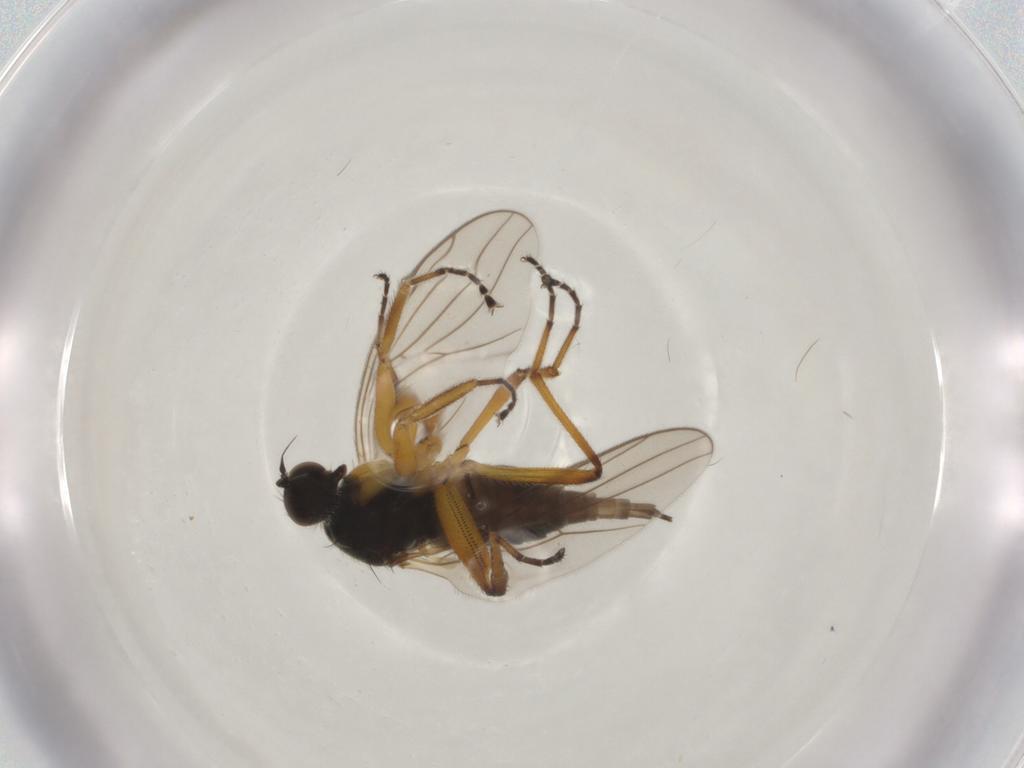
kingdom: Animalia
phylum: Arthropoda
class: Insecta
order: Diptera
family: Hybotidae
